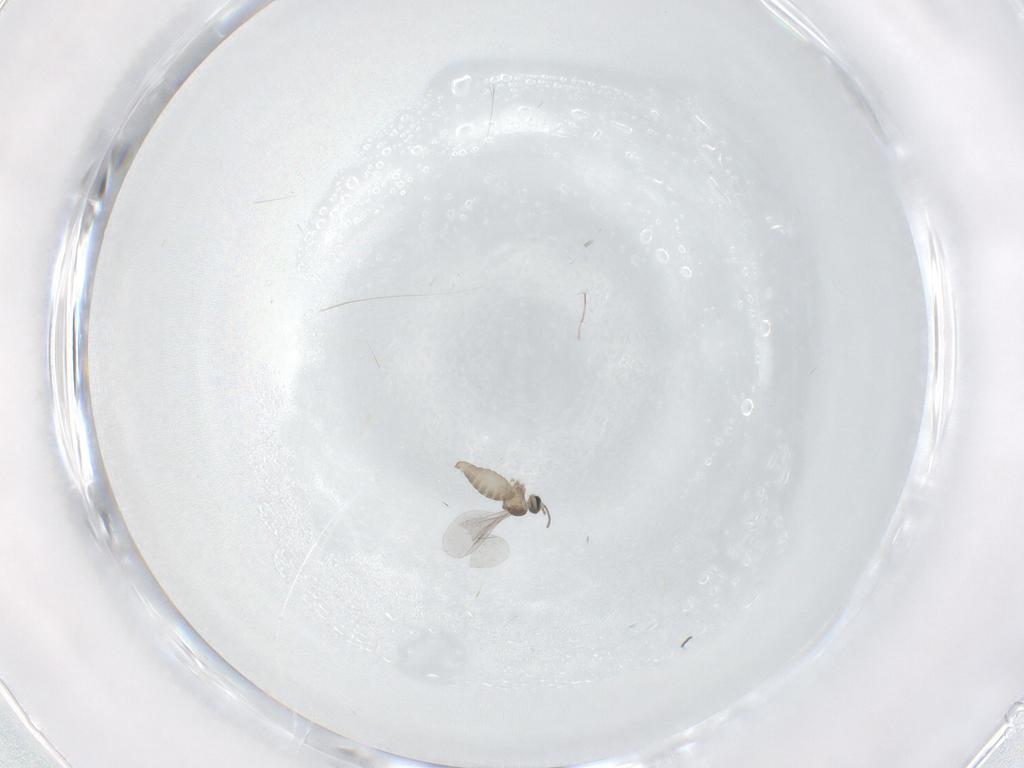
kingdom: Animalia
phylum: Arthropoda
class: Insecta
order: Diptera
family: Cecidomyiidae
